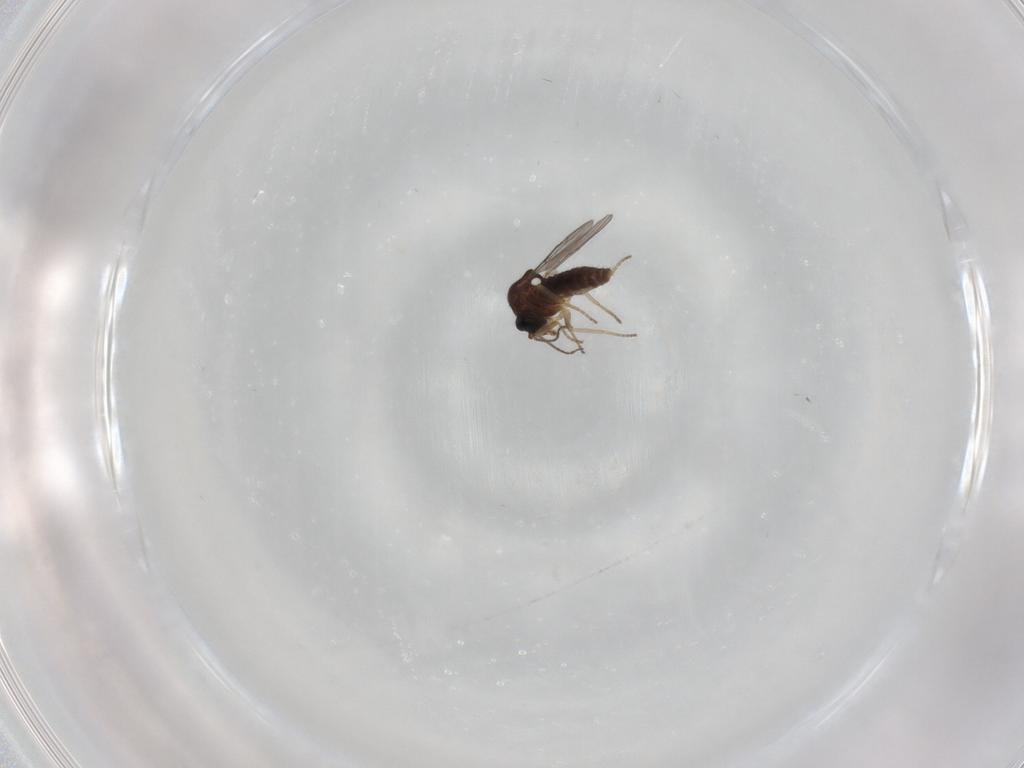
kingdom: Animalia
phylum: Arthropoda
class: Insecta
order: Diptera
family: Ceratopogonidae
